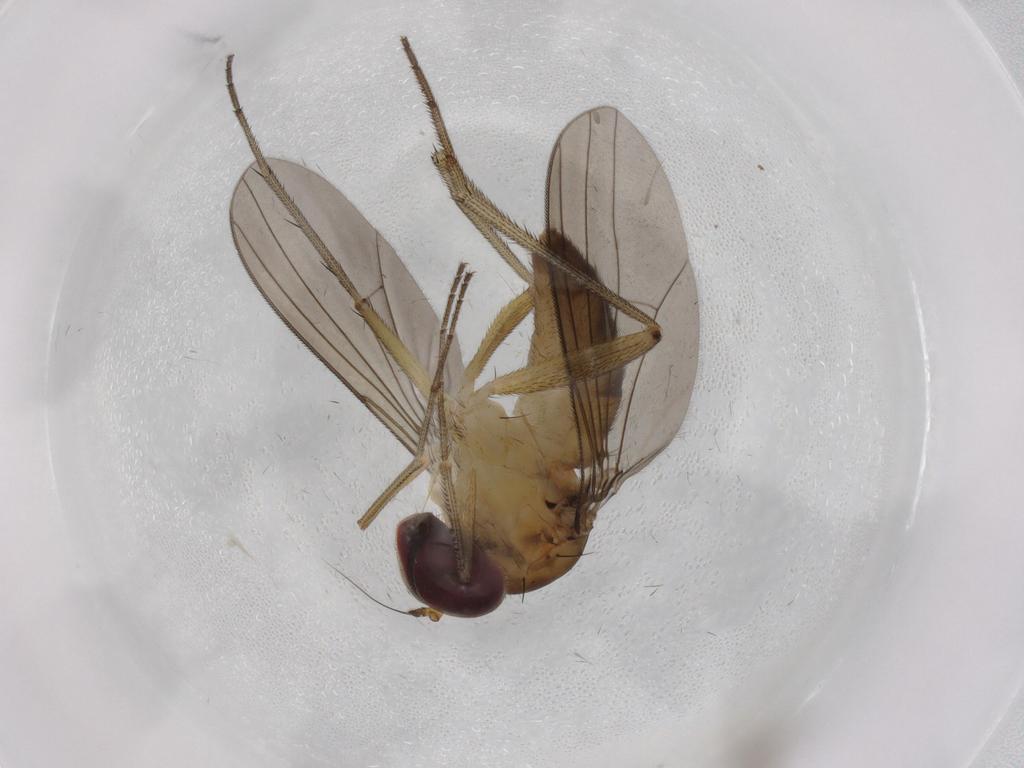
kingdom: Animalia
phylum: Arthropoda
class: Insecta
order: Diptera
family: Dolichopodidae
